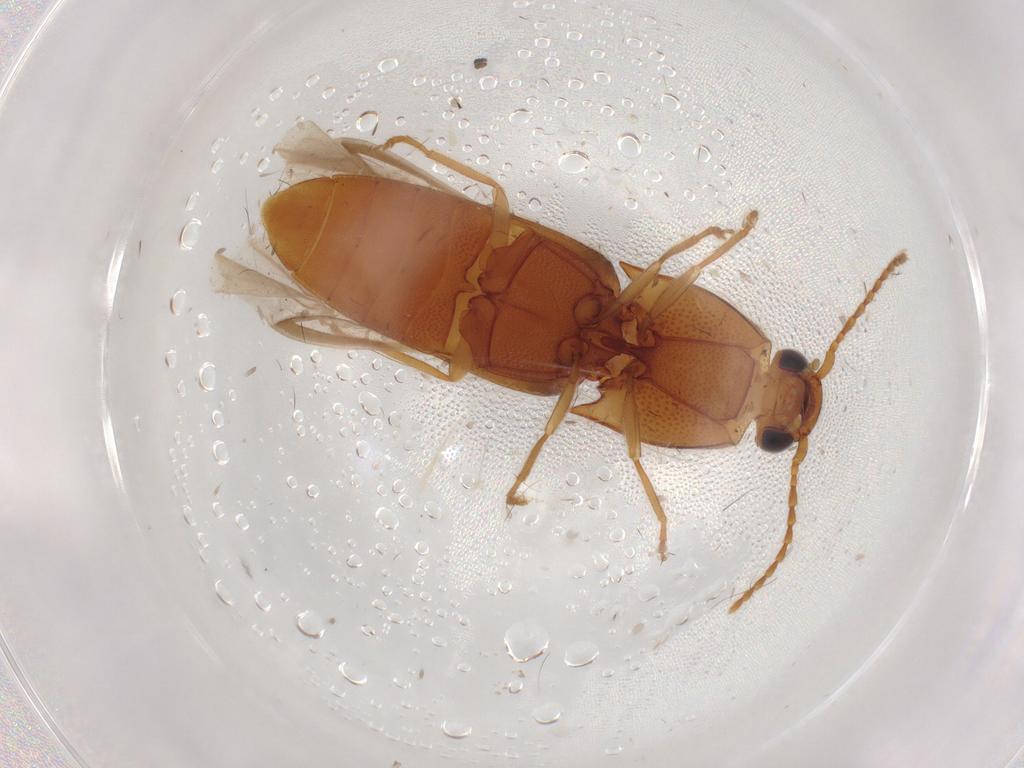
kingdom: Animalia
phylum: Arthropoda
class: Insecta
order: Coleoptera
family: Elateridae
